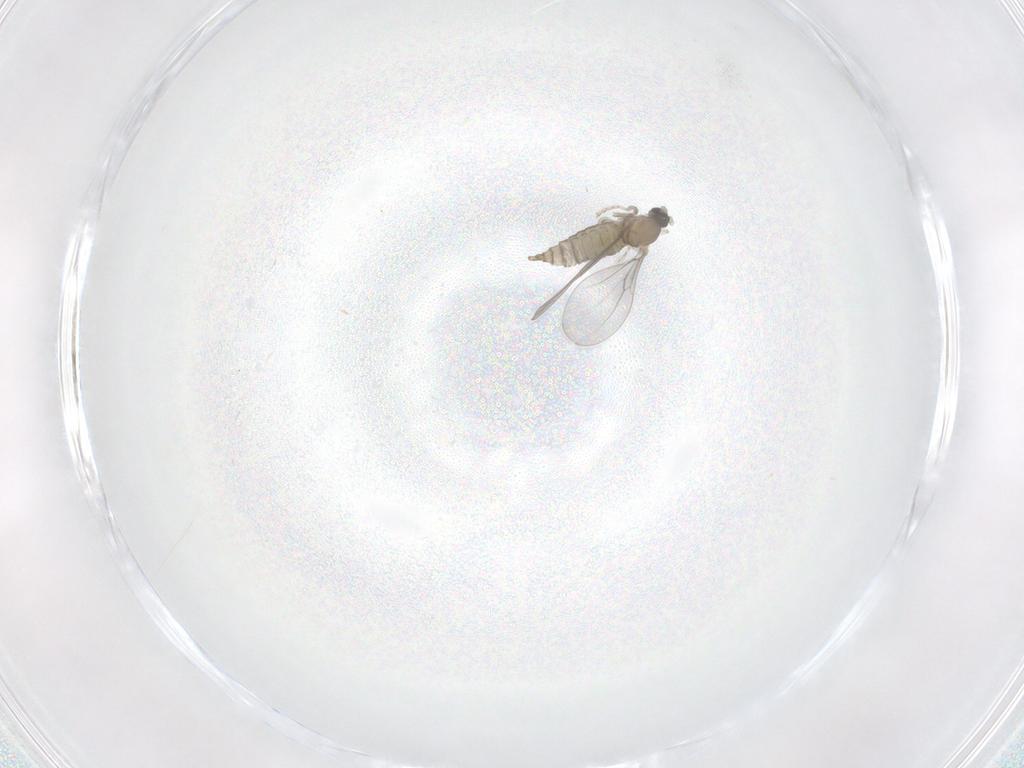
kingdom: Animalia
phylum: Arthropoda
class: Insecta
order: Diptera
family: Cecidomyiidae
